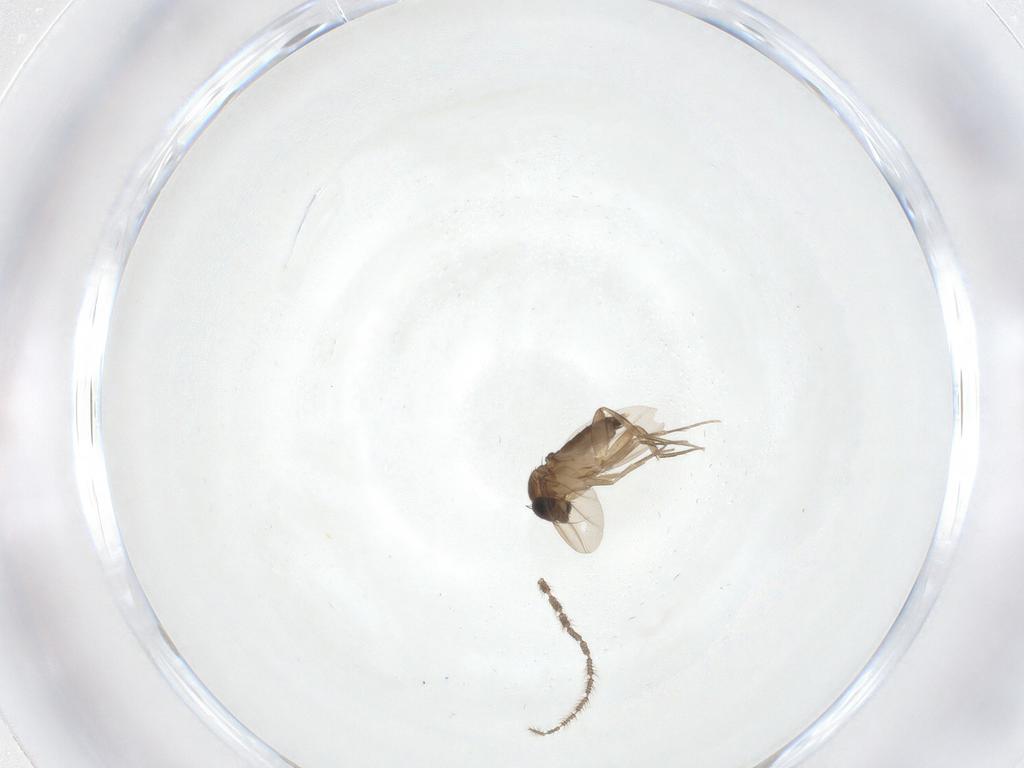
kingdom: Animalia
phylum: Arthropoda
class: Insecta
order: Diptera
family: Phoridae
